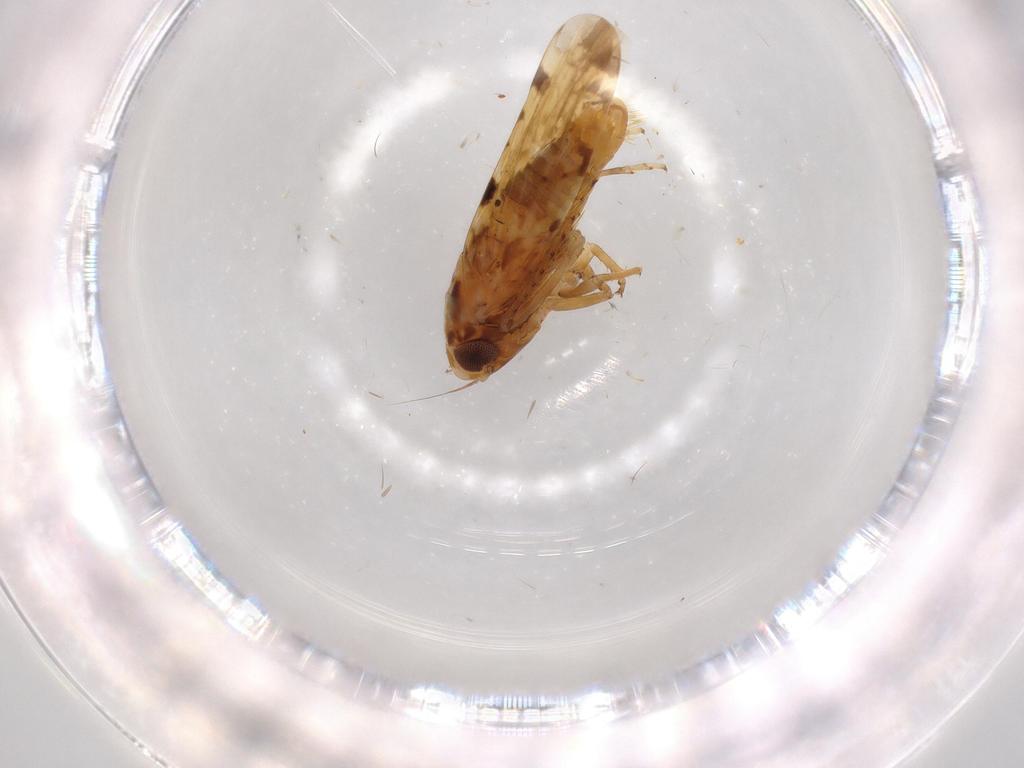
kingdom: Animalia
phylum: Arthropoda
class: Insecta
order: Hemiptera
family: Cicadellidae
